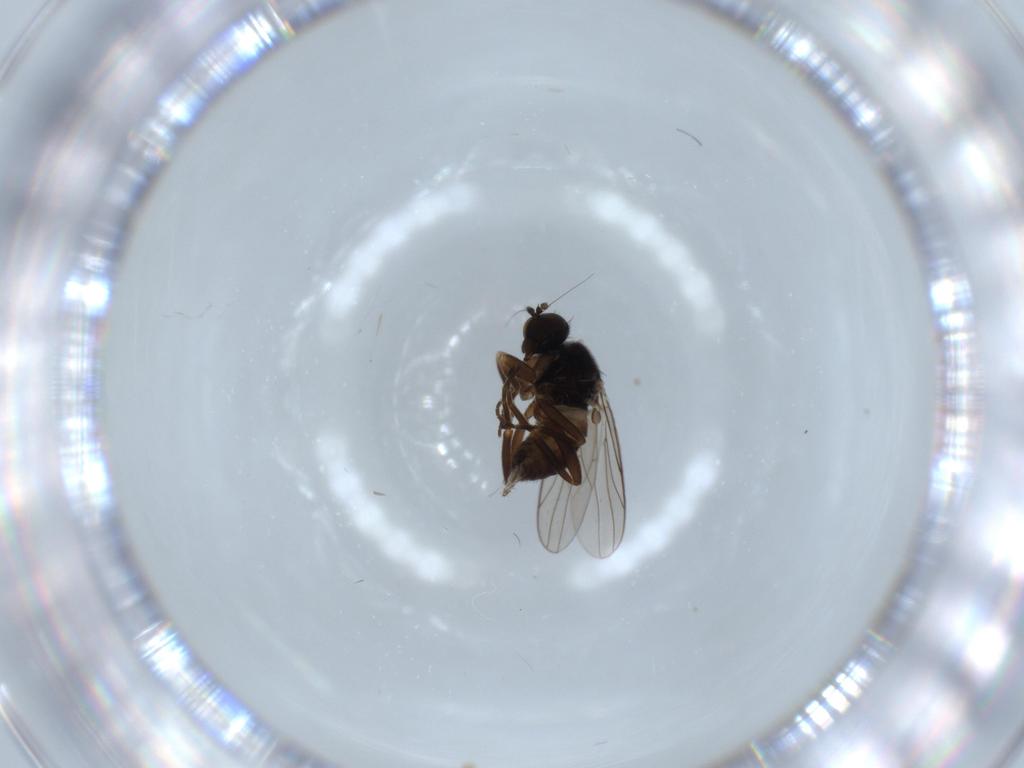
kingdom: Animalia
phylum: Arthropoda
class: Insecta
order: Diptera
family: Hybotidae
